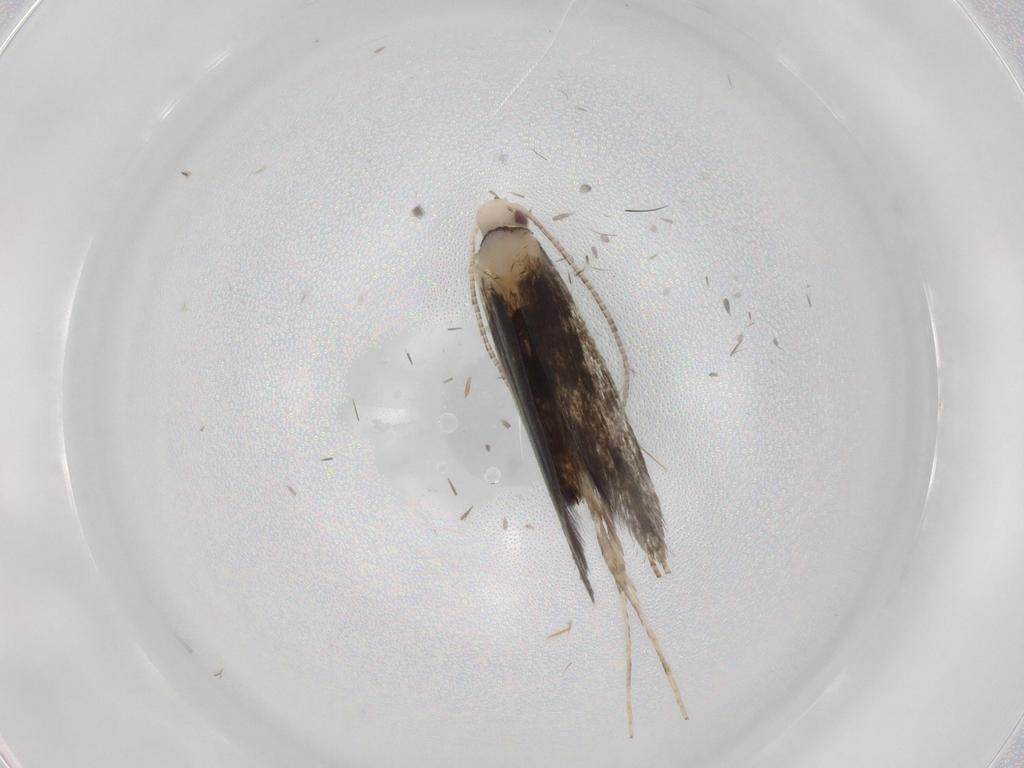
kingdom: Animalia
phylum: Arthropoda
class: Insecta
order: Lepidoptera
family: Gracillariidae
